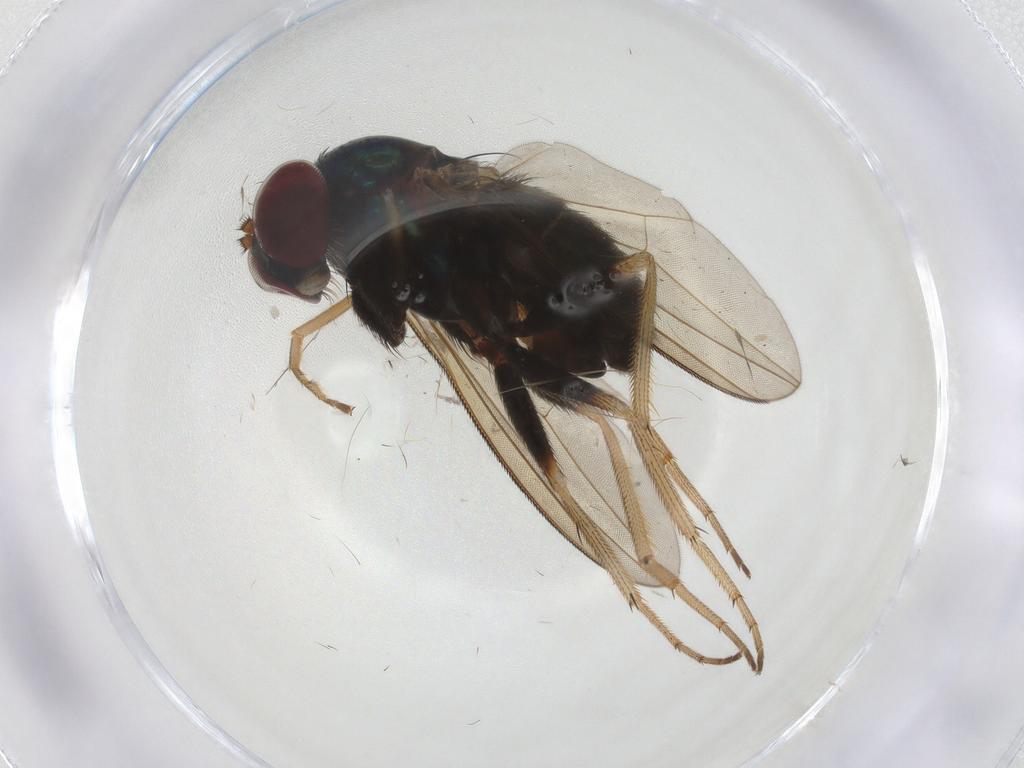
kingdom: Animalia
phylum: Arthropoda
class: Insecta
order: Diptera
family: Dolichopodidae
